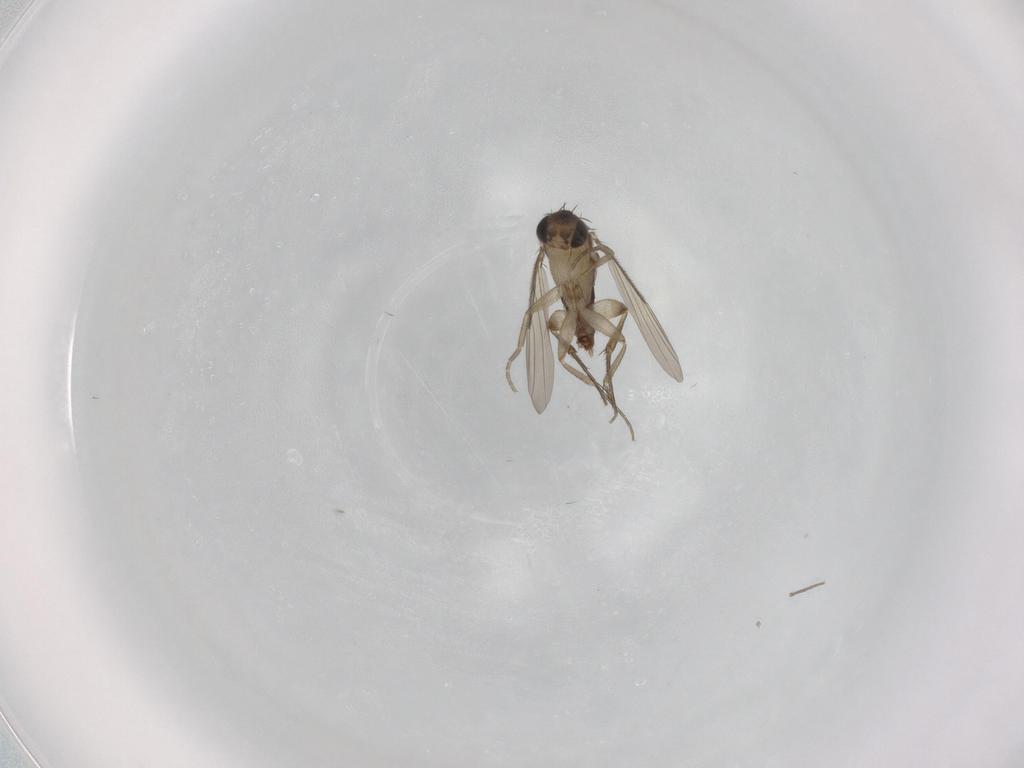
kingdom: Animalia
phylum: Arthropoda
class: Insecta
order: Diptera
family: Phoridae
